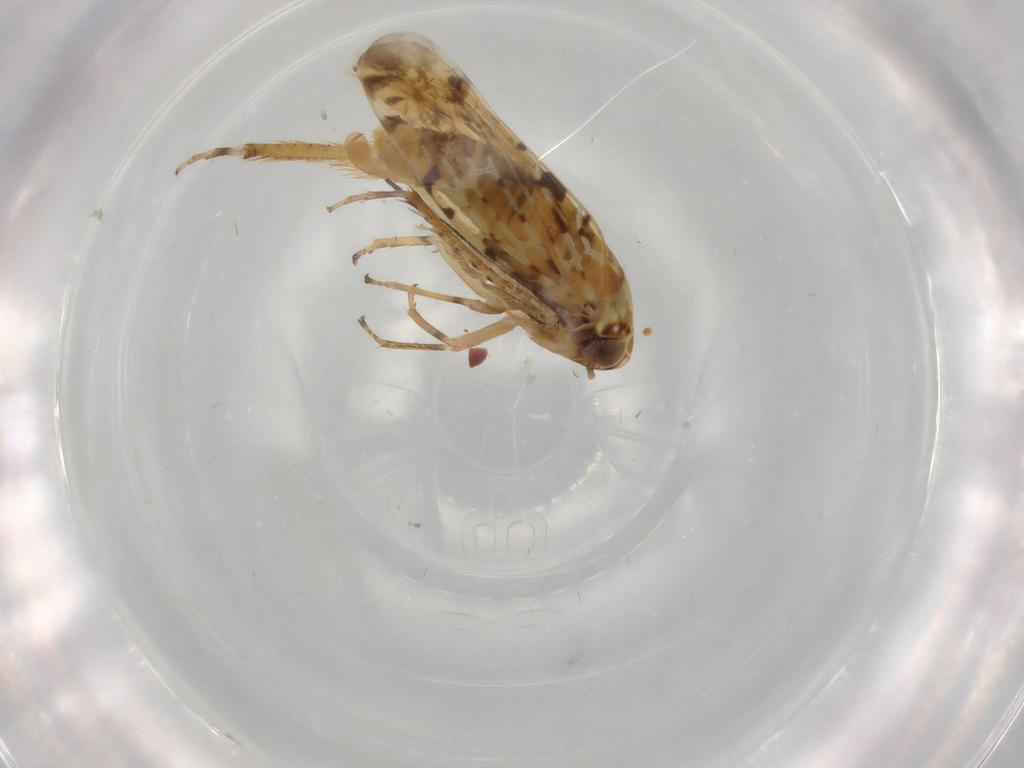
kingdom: Animalia
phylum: Arthropoda
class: Insecta
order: Hemiptera
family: Cicadellidae
